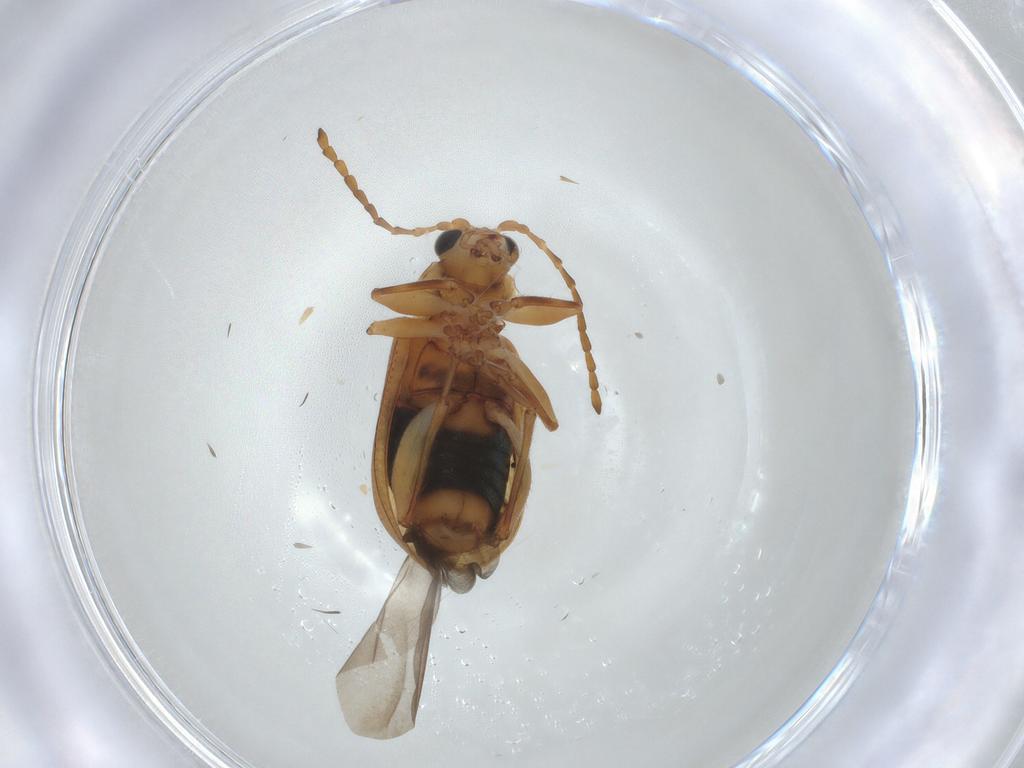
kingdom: Animalia
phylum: Arthropoda
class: Insecta
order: Coleoptera
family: Chrysomelidae
